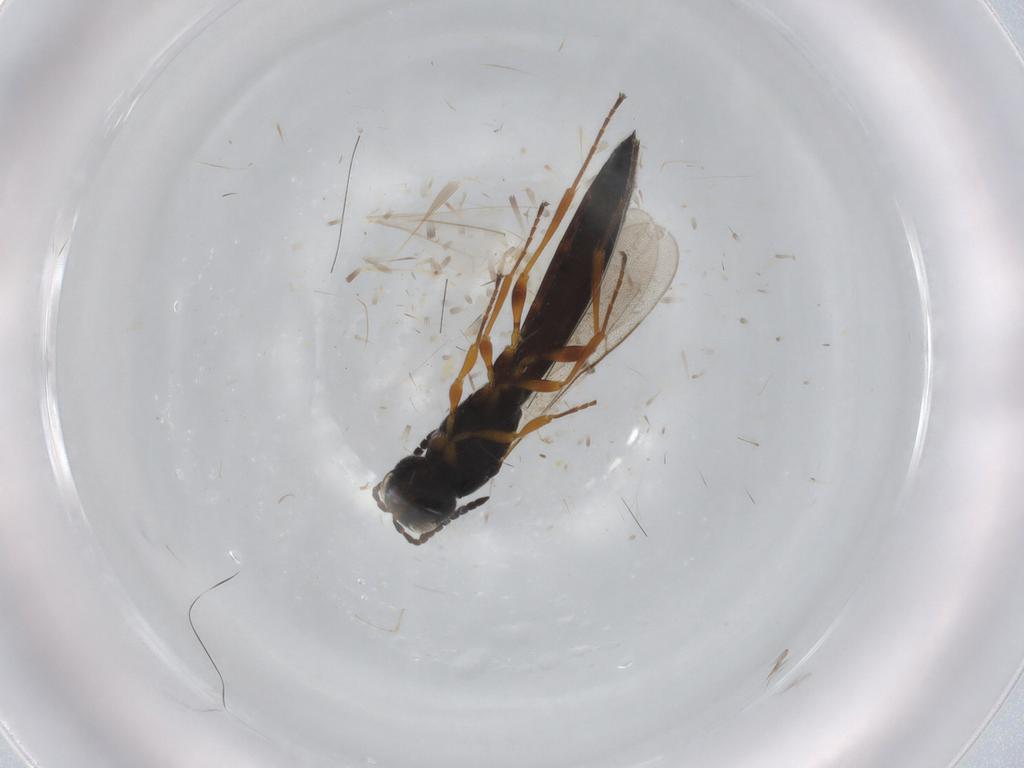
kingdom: Animalia
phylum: Arthropoda
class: Insecta
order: Hymenoptera
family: Scelionidae
